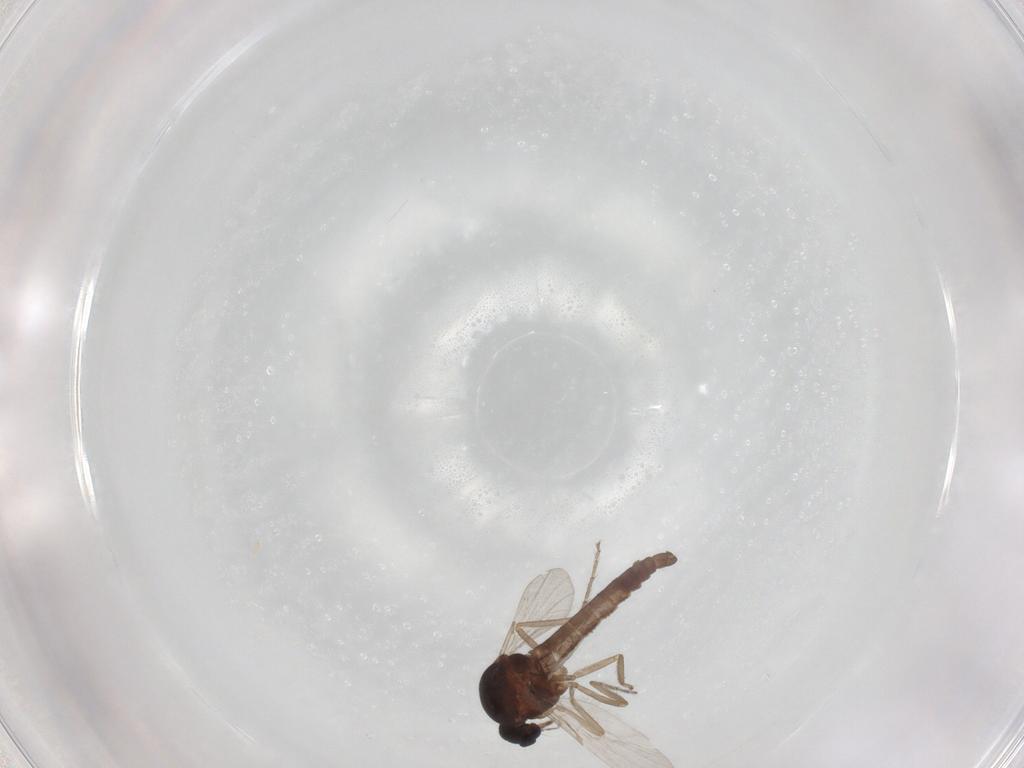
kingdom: Animalia
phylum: Arthropoda
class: Insecta
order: Diptera
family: Ceratopogonidae
